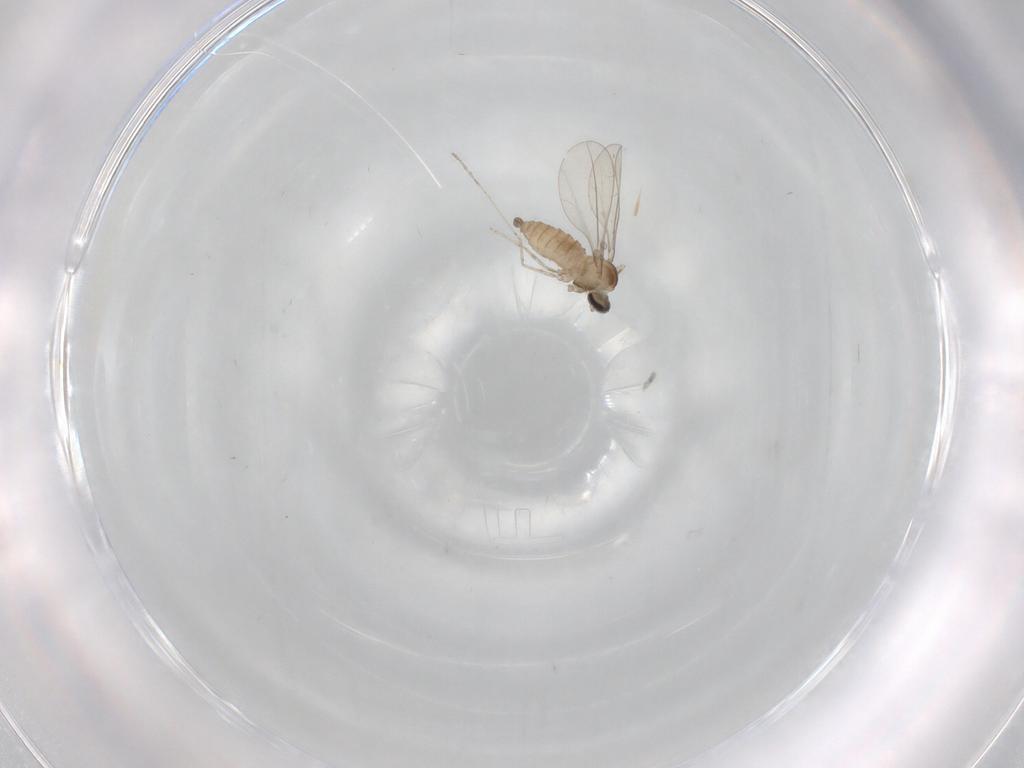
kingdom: Animalia
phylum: Arthropoda
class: Insecta
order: Diptera
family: Cecidomyiidae
